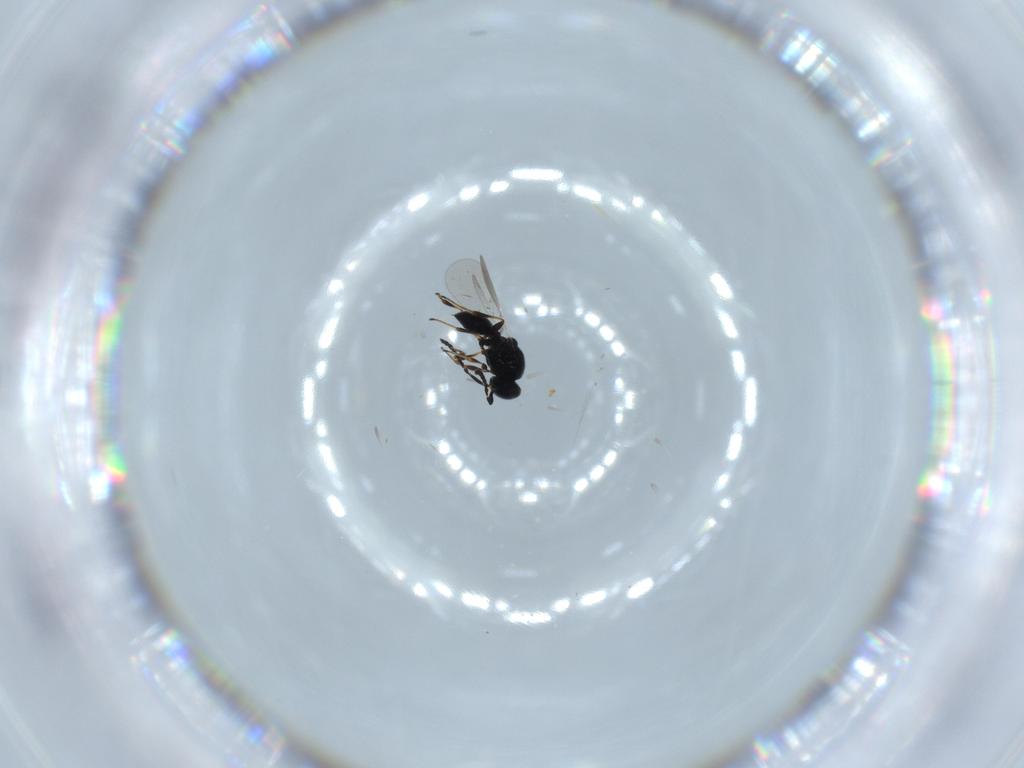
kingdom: Animalia
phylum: Arthropoda
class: Insecta
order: Hymenoptera
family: Platygastridae
